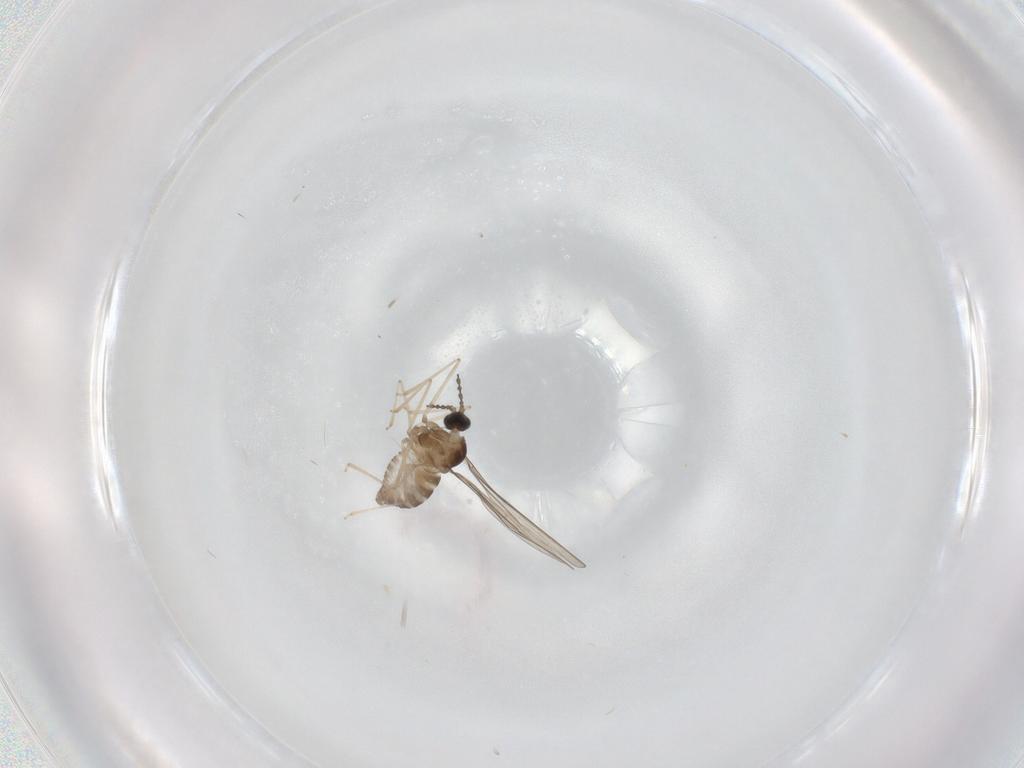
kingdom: Animalia
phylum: Arthropoda
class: Insecta
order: Diptera
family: Cecidomyiidae
